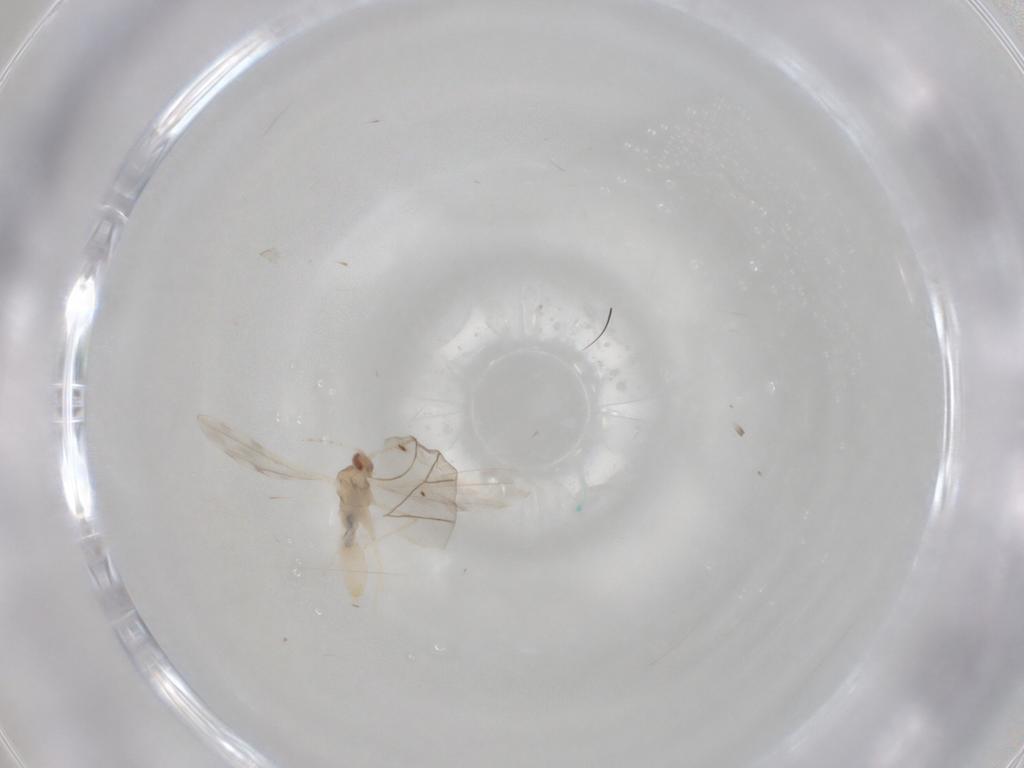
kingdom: Animalia
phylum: Arthropoda
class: Insecta
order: Diptera
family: Cecidomyiidae
